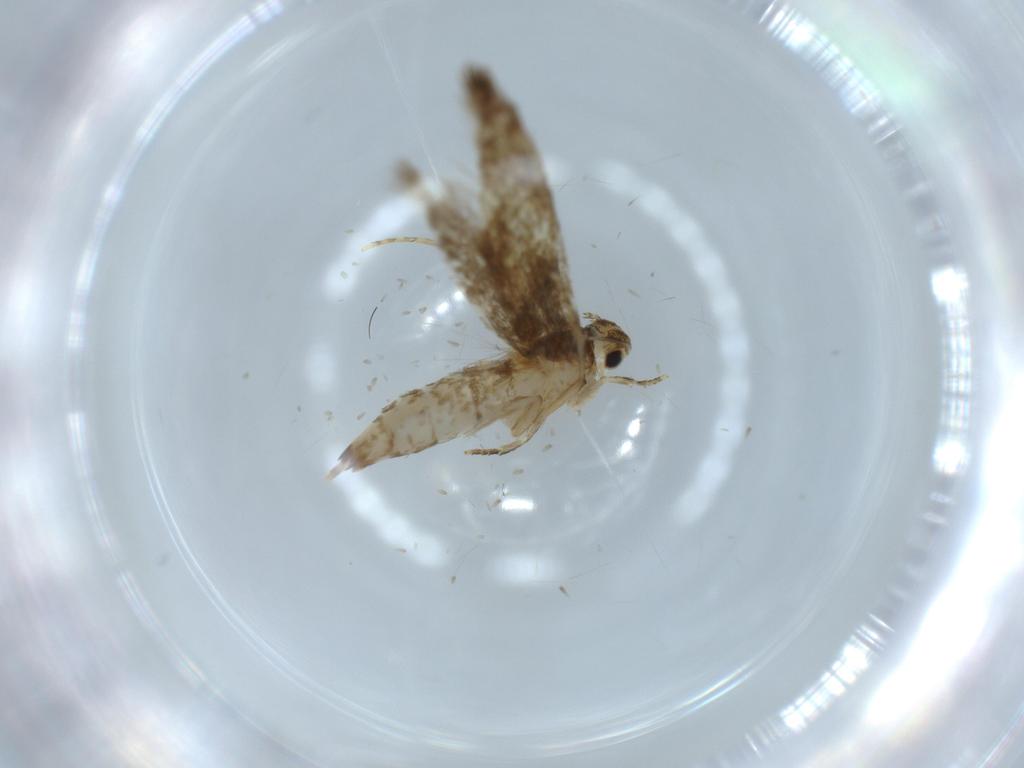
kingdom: Animalia
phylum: Arthropoda
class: Insecta
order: Lepidoptera
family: Tineidae
